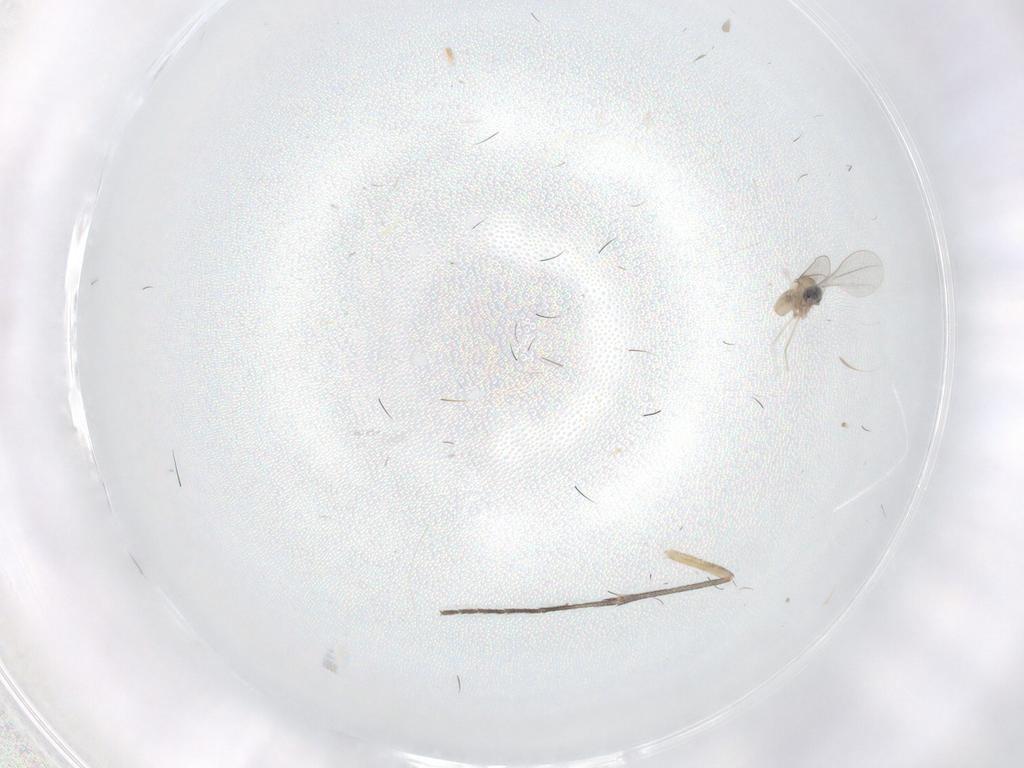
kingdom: Animalia
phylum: Arthropoda
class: Insecta
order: Diptera
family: Cecidomyiidae
